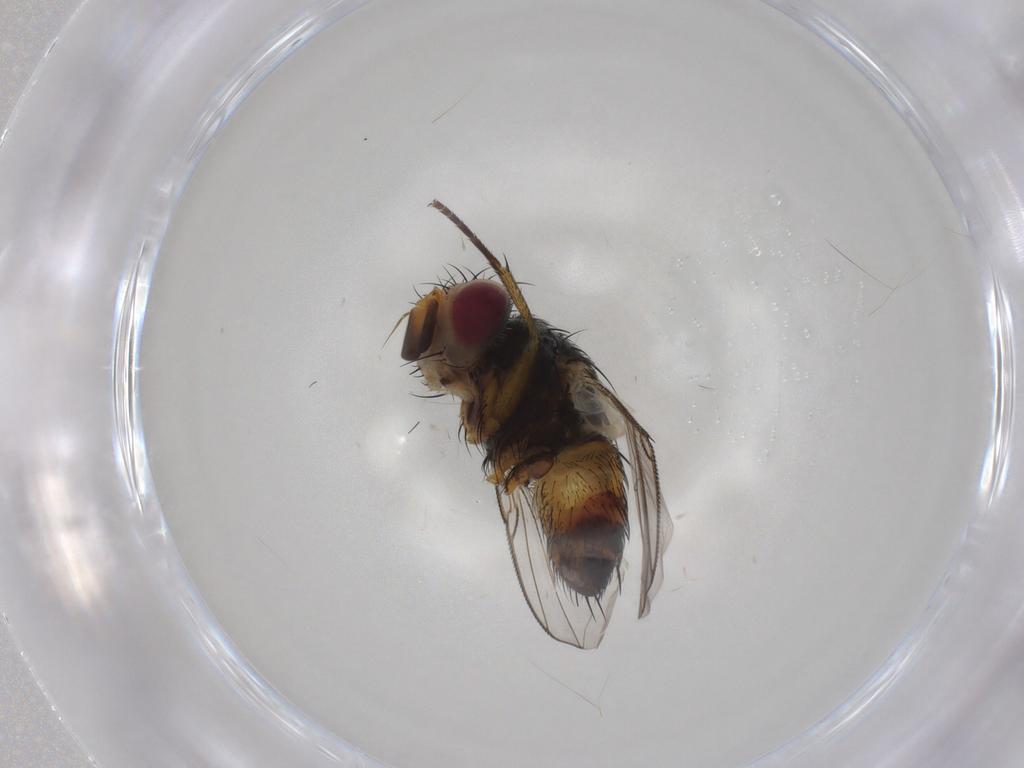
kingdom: Animalia
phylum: Arthropoda
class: Insecta
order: Diptera
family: Tachinidae
